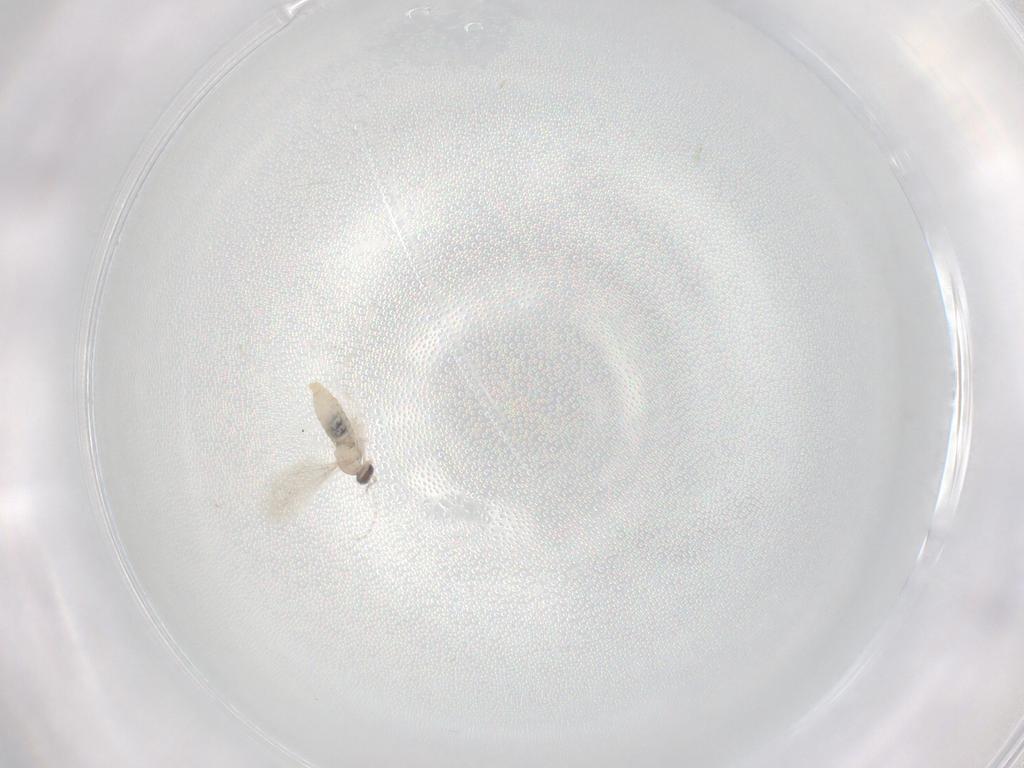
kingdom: Animalia
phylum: Arthropoda
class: Insecta
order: Diptera
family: Cecidomyiidae
